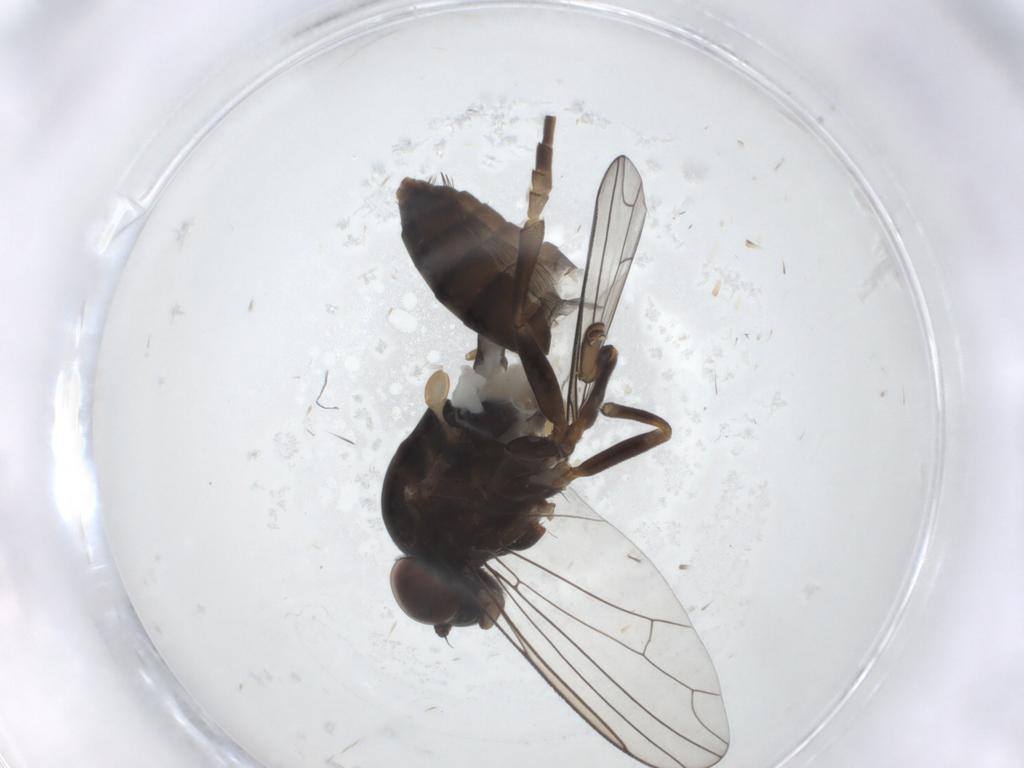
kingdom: Animalia
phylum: Arthropoda
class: Insecta
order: Diptera
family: Platypezidae
